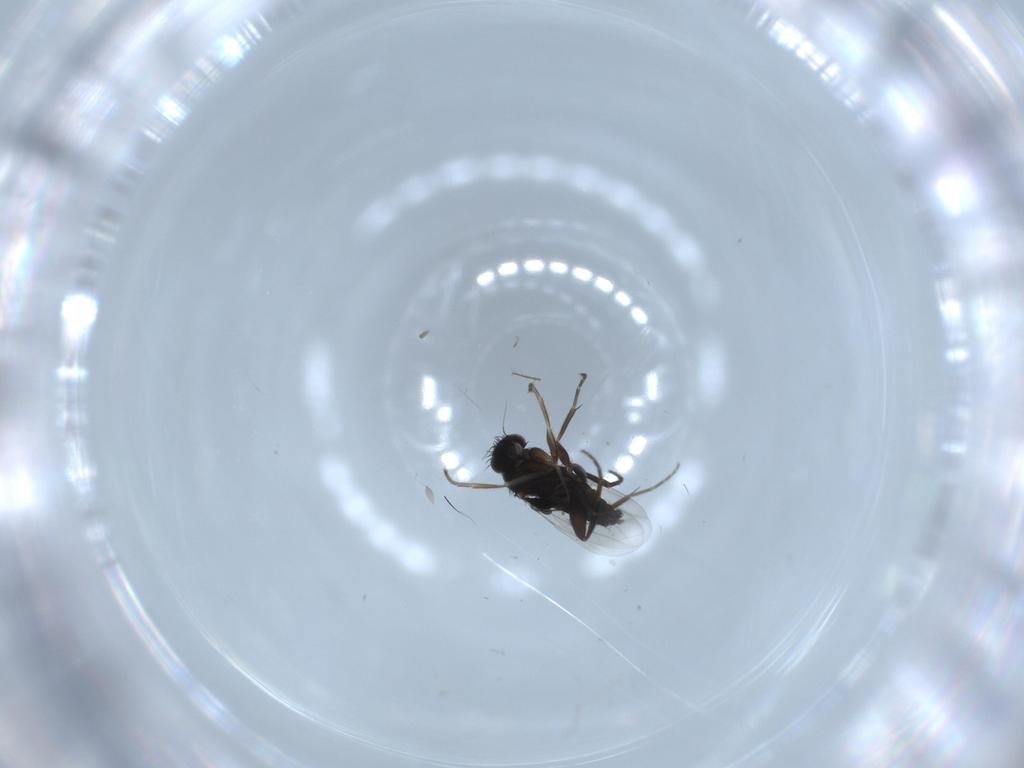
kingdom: Animalia
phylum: Arthropoda
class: Insecta
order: Diptera
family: Phoridae
